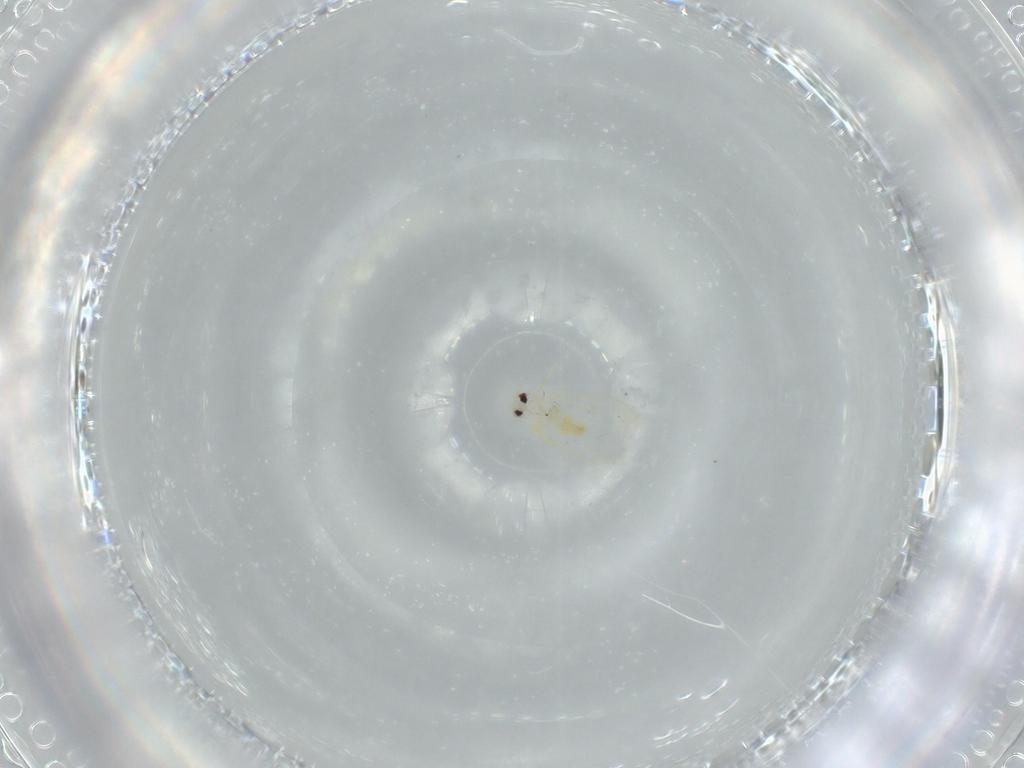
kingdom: Animalia
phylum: Arthropoda
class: Insecta
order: Hemiptera
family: Aleyrodidae
